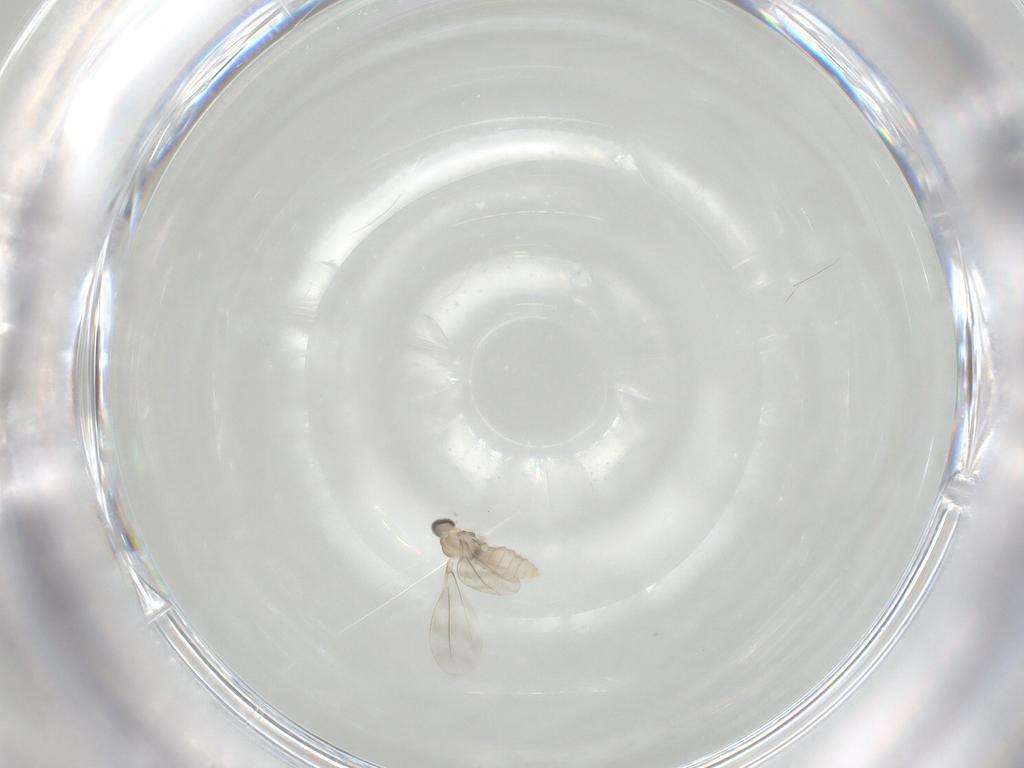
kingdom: Animalia
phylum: Arthropoda
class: Insecta
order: Diptera
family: Cecidomyiidae
